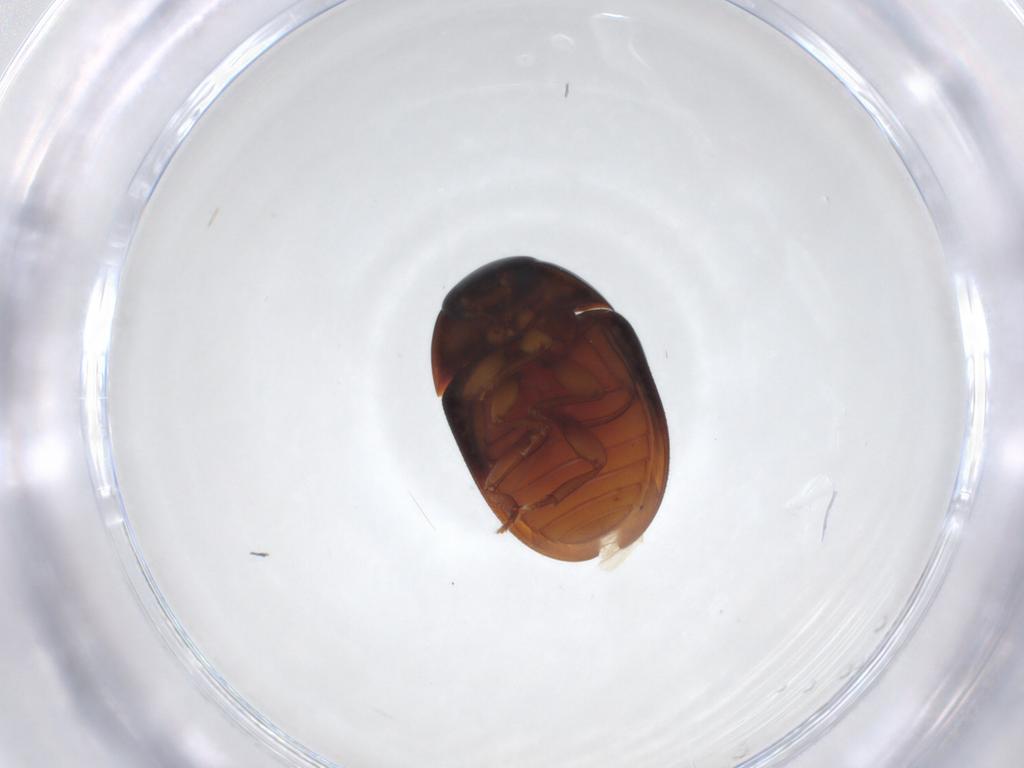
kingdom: Animalia
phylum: Arthropoda
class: Insecta
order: Coleoptera
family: Phalacridae
